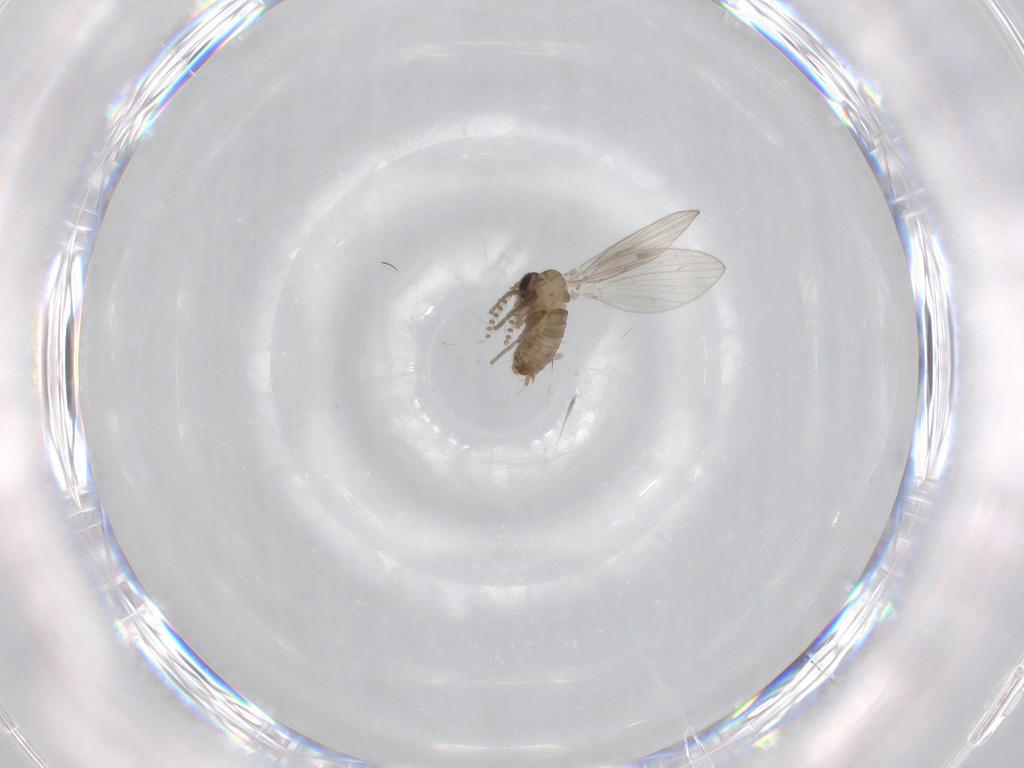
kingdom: Animalia
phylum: Arthropoda
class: Insecta
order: Diptera
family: Psychodidae
